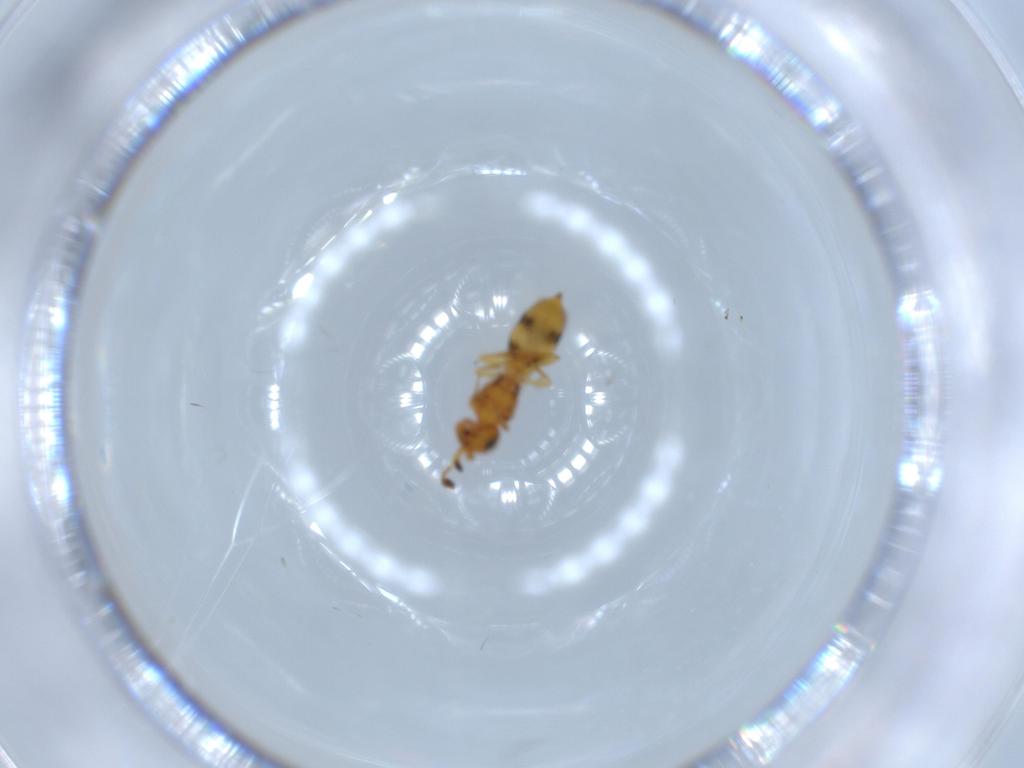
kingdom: Animalia
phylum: Arthropoda
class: Insecta
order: Hymenoptera
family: Scelionidae
